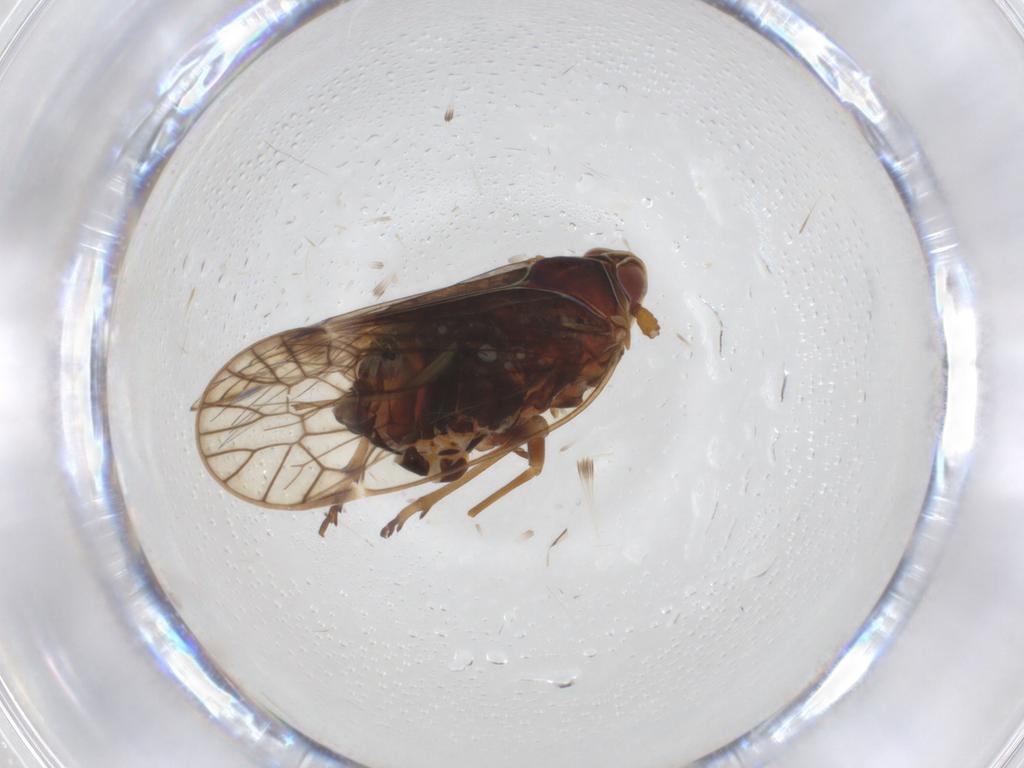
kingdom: Animalia
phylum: Arthropoda
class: Insecta
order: Hemiptera
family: Kinnaridae
